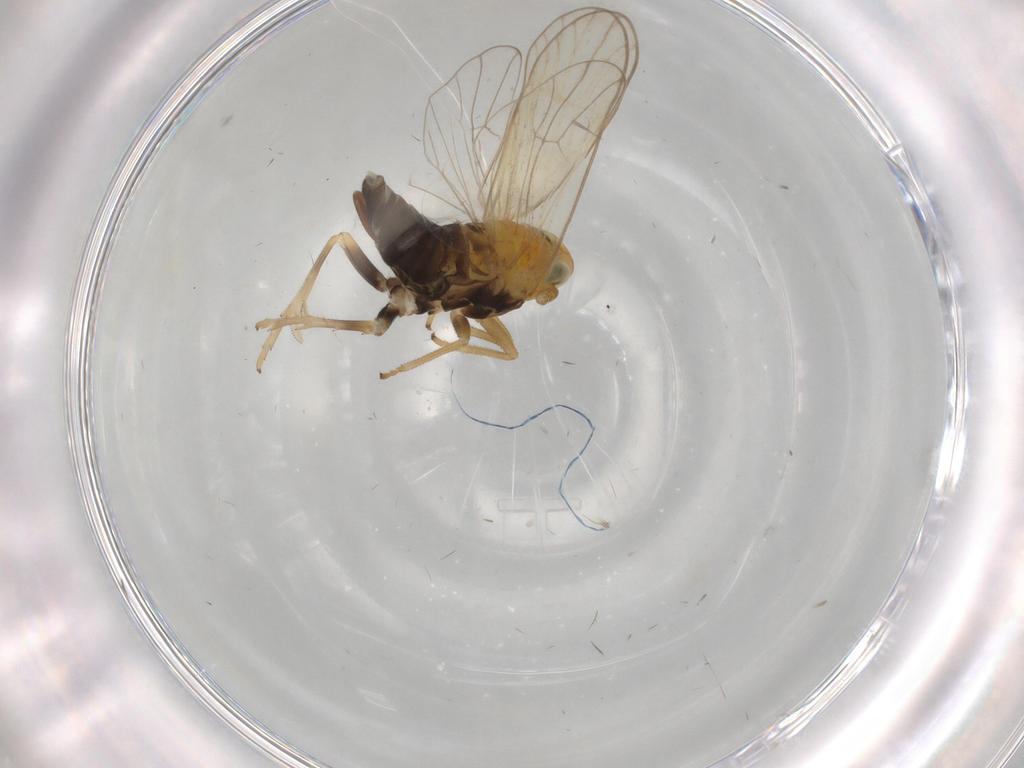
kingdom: Animalia
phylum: Arthropoda
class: Insecta
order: Hemiptera
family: Delphacidae
